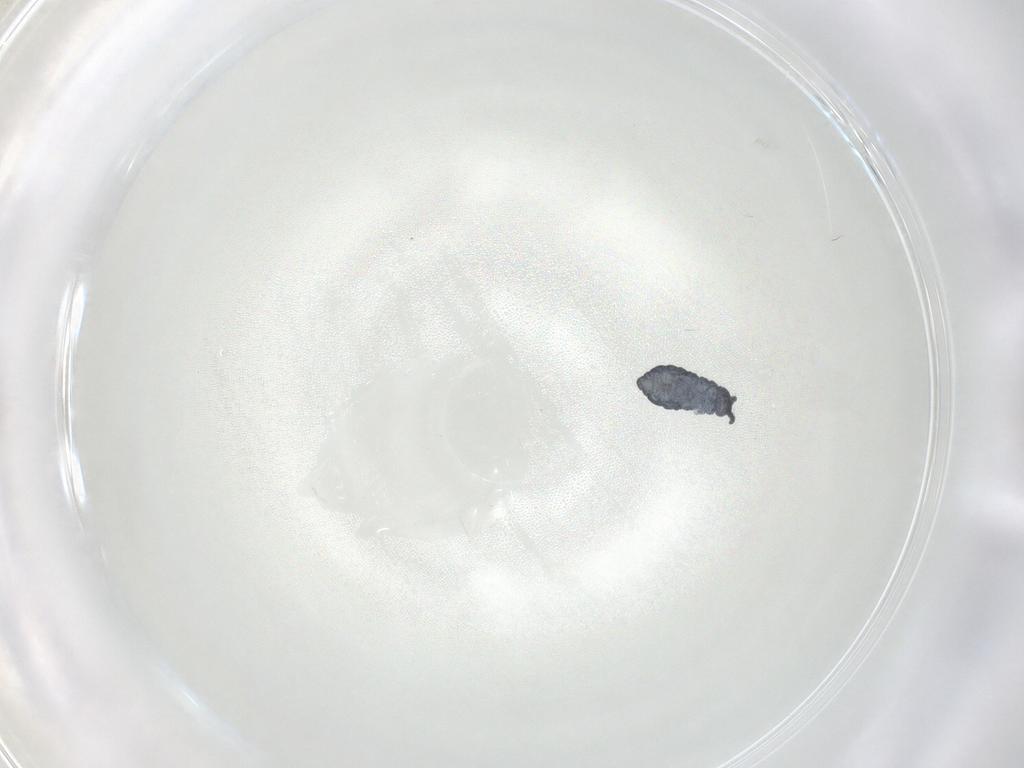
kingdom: Animalia
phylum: Arthropoda
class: Collembola
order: Poduromorpha
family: Hypogastruridae
